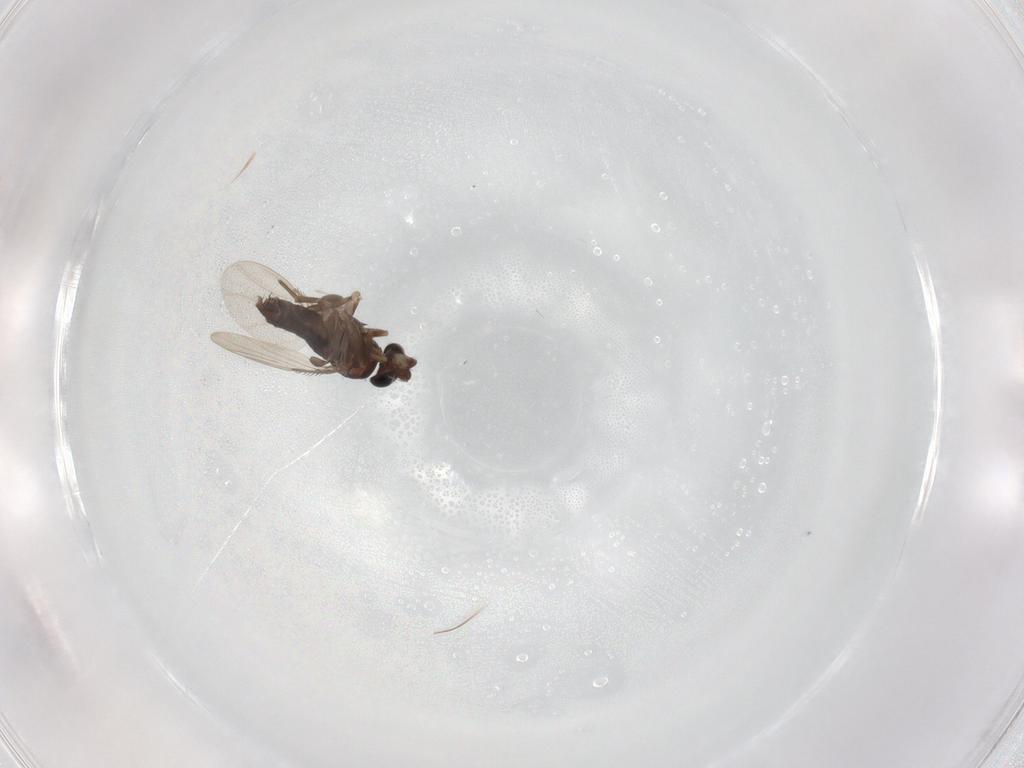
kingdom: Animalia
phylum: Arthropoda
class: Insecta
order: Diptera
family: Phoridae
